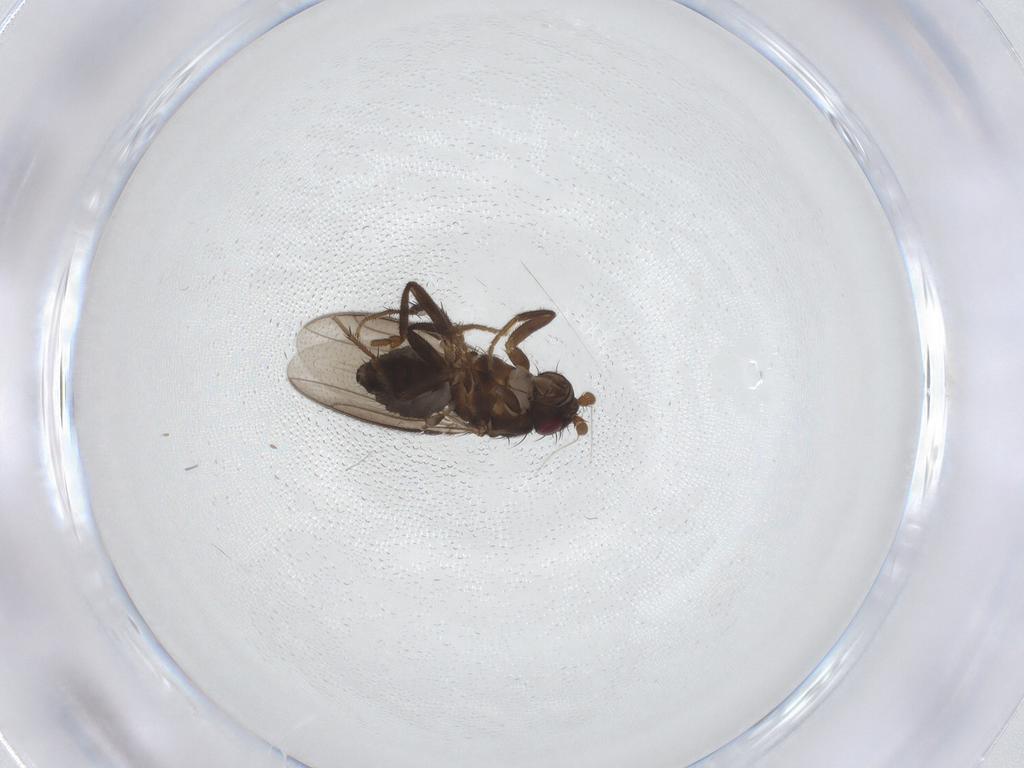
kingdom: Animalia
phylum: Arthropoda
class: Insecta
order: Diptera
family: Sphaeroceridae
